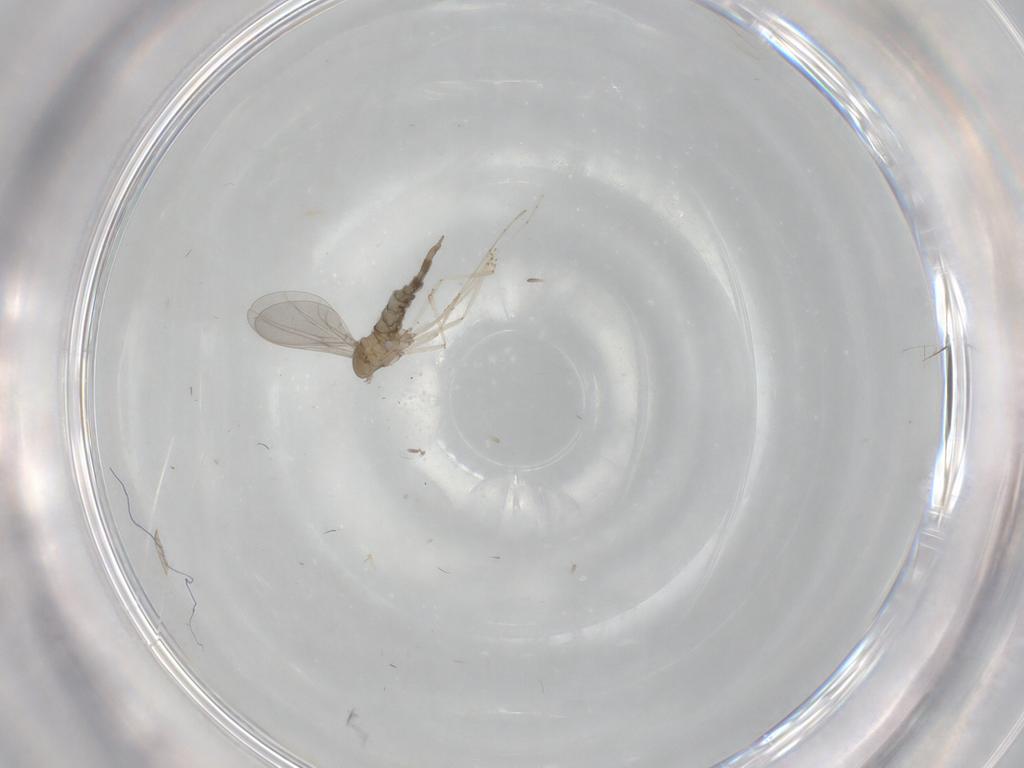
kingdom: Animalia
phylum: Arthropoda
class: Insecta
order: Diptera
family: Cecidomyiidae
